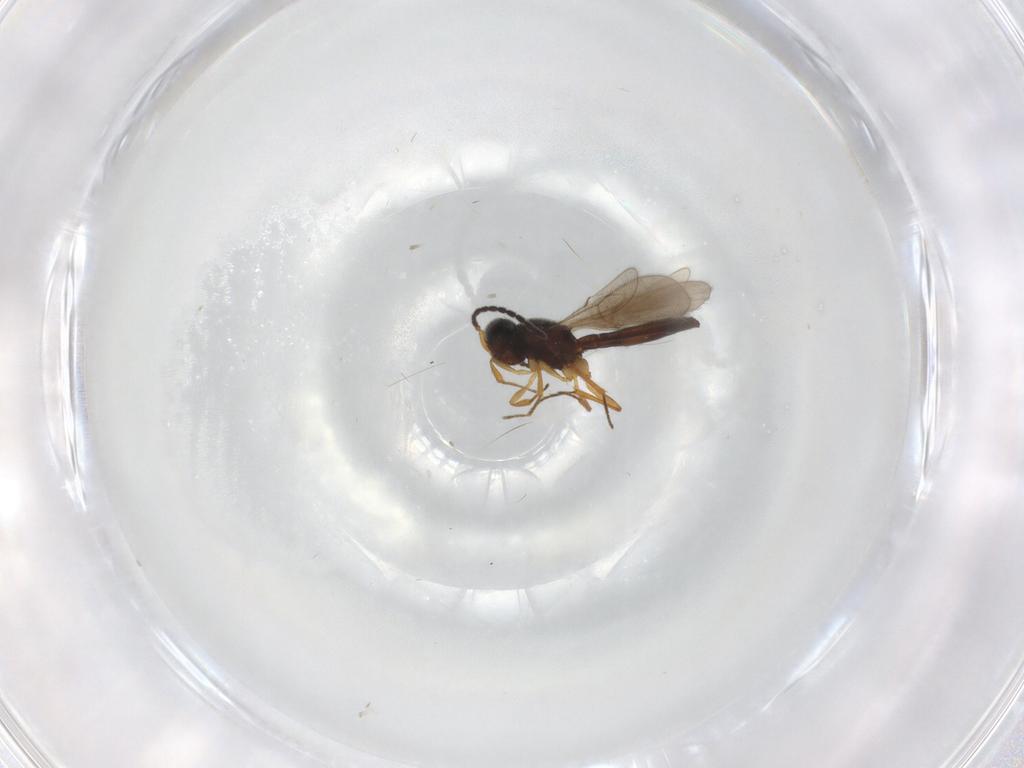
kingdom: Animalia
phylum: Arthropoda
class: Insecta
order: Hymenoptera
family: Scelionidae
